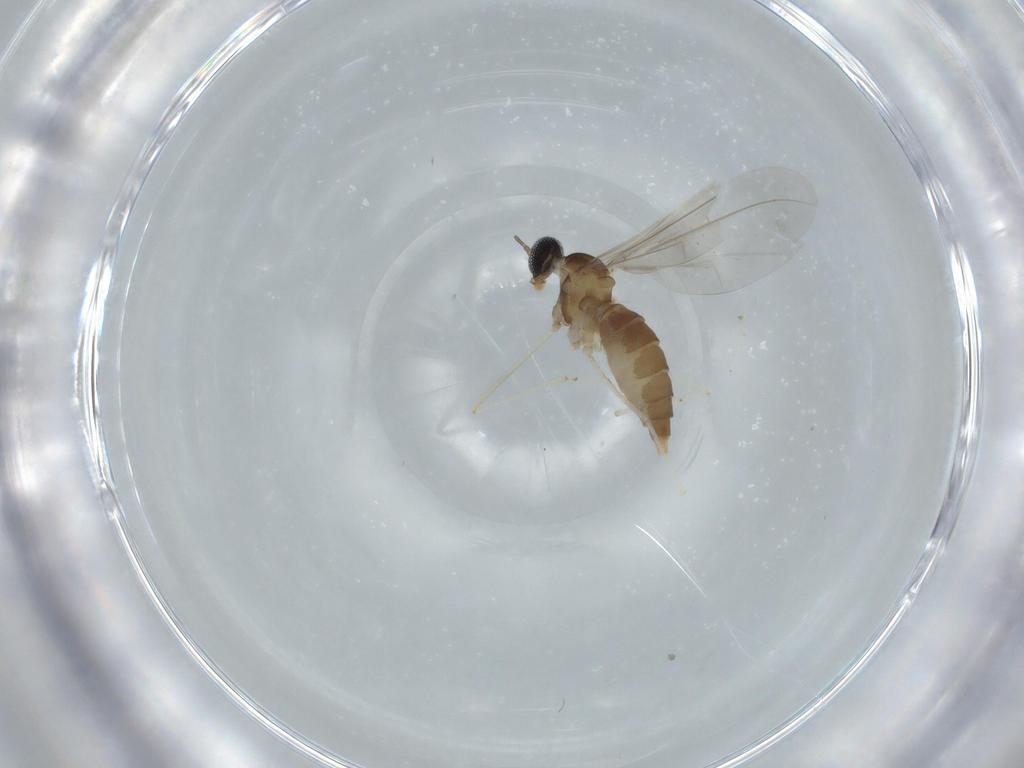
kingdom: Animalia
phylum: Arthropoda
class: Insecta
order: Diptera
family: Cecidomyiidae
